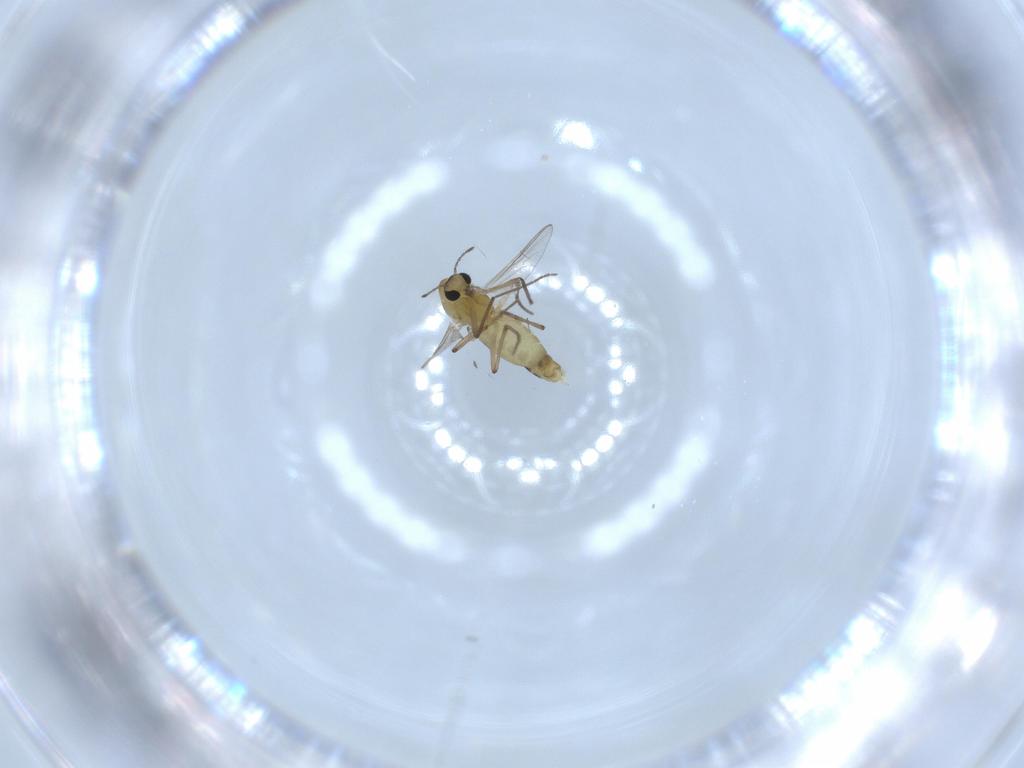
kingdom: Animalia
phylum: Arthropoda
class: Insecta
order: Diptera
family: Chironomidae
